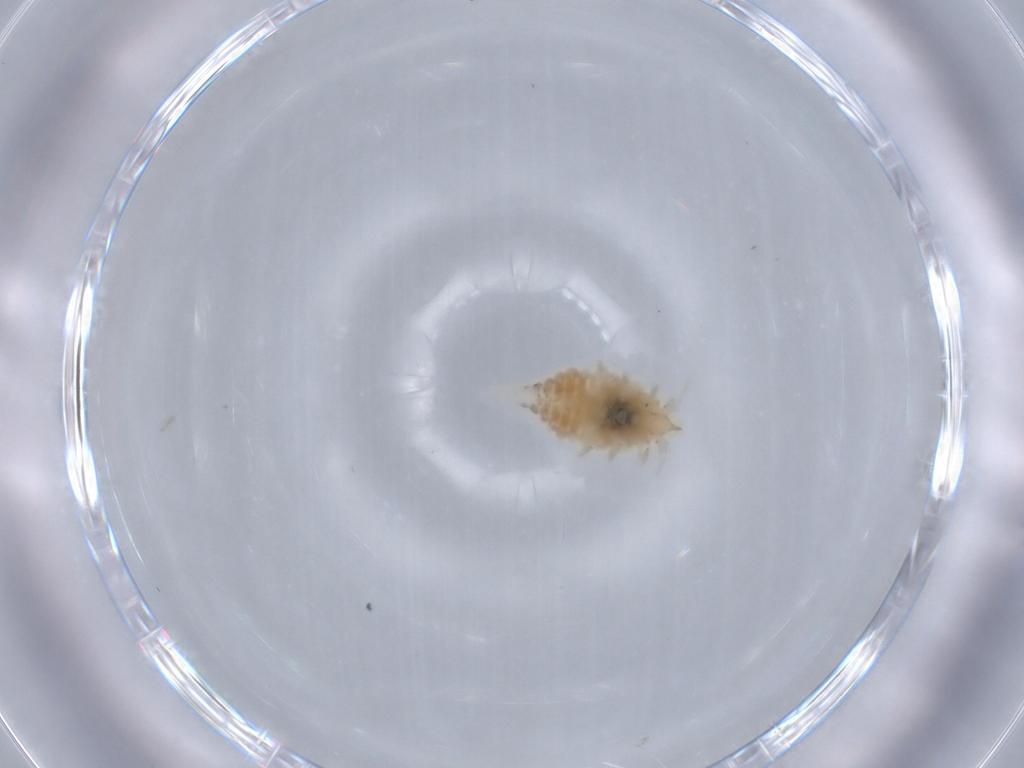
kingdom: Animalia
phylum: Arthropoda
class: Insecta
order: Neuroptera
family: Coniopterygidae
